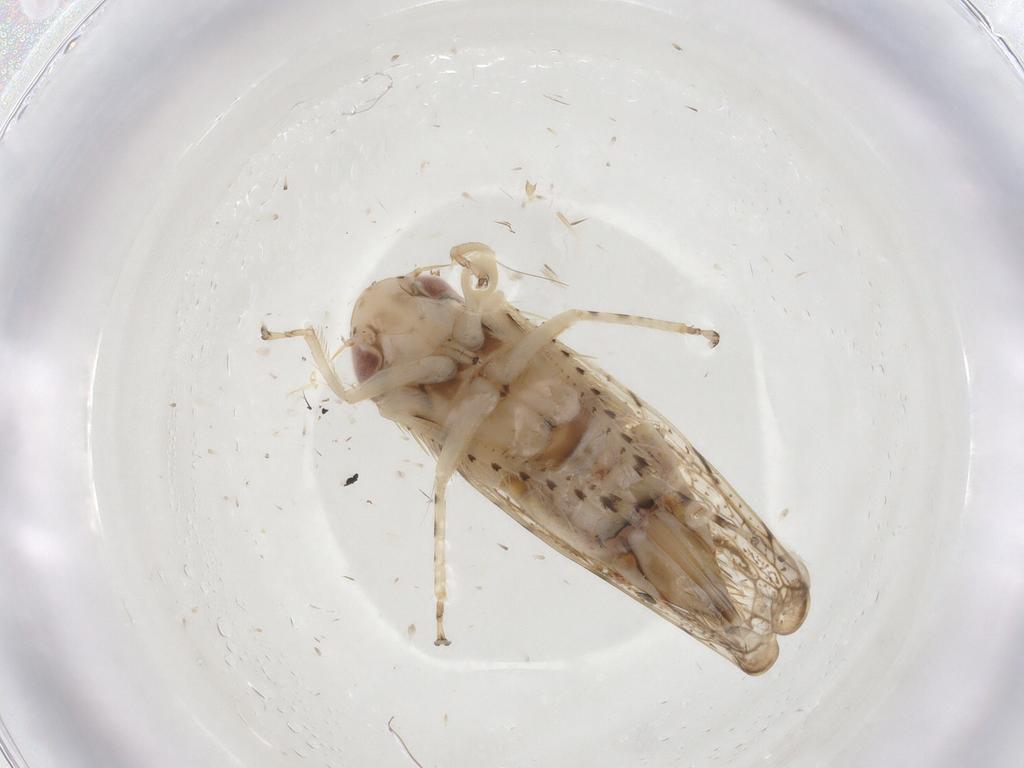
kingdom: Animalia
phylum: Arthropoda
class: Insecta
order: Hemiptera
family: Cicadellidae
